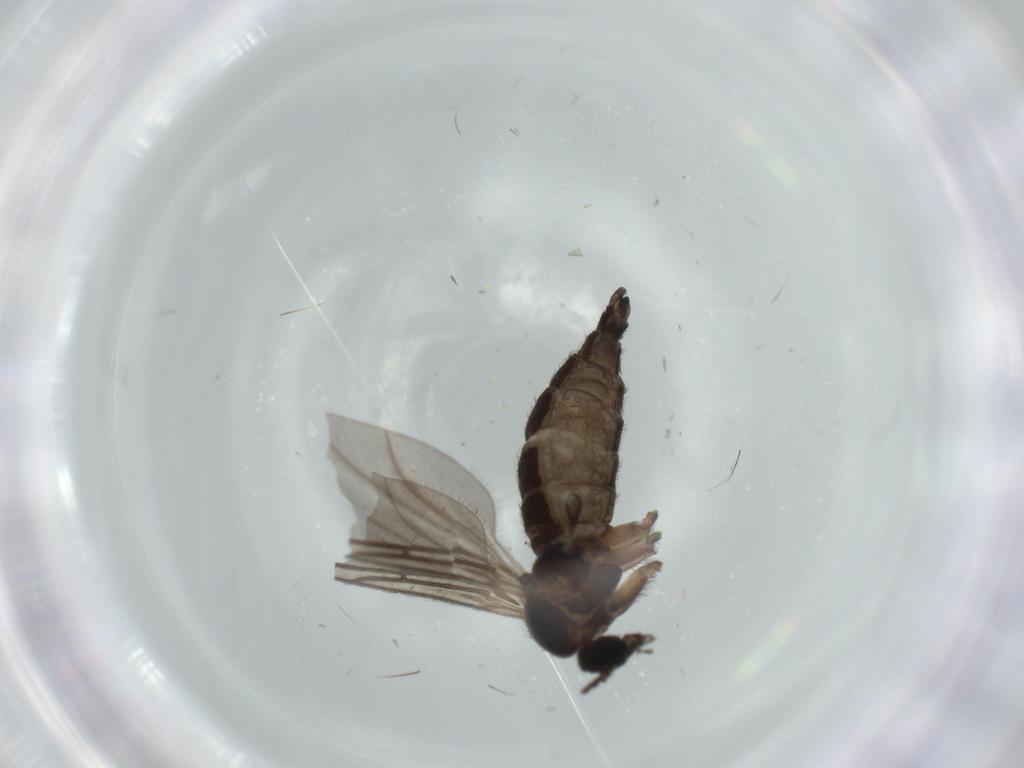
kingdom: Animalia
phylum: Arthropoda
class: Insecta
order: Diptera
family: Sciaridae
